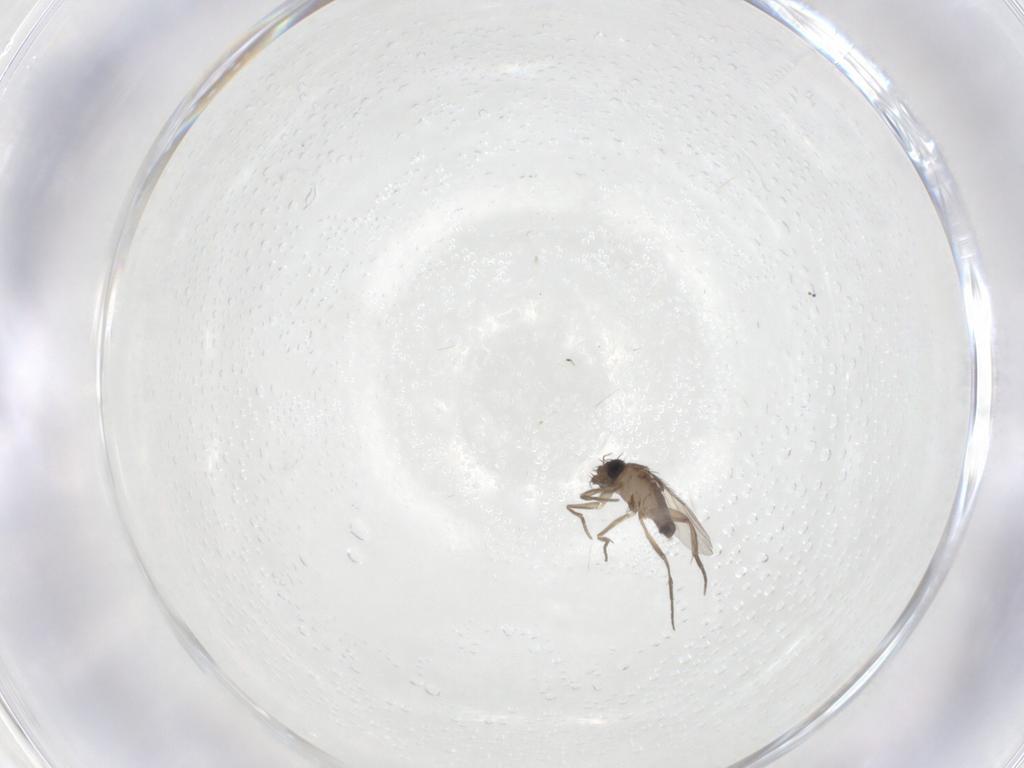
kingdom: Animalia
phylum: Arthropoda
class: Insecta
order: Diptera
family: Phoridae
